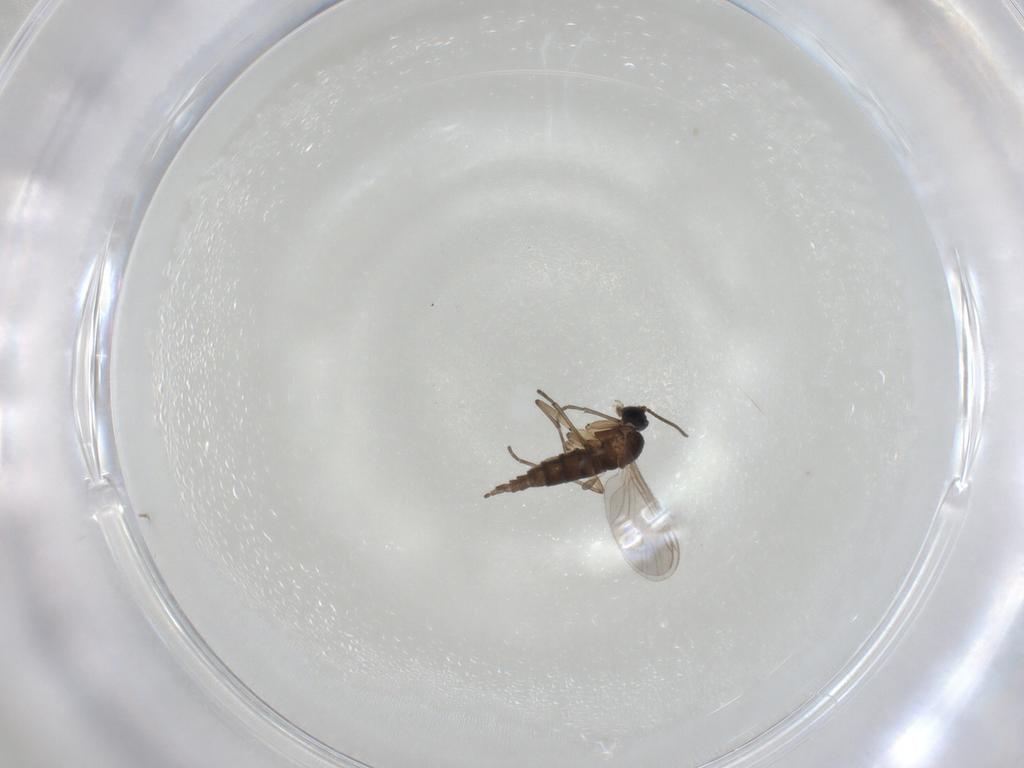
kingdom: Animalia
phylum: Arthropoda
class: Insecta
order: Diptera
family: Sciaridae
